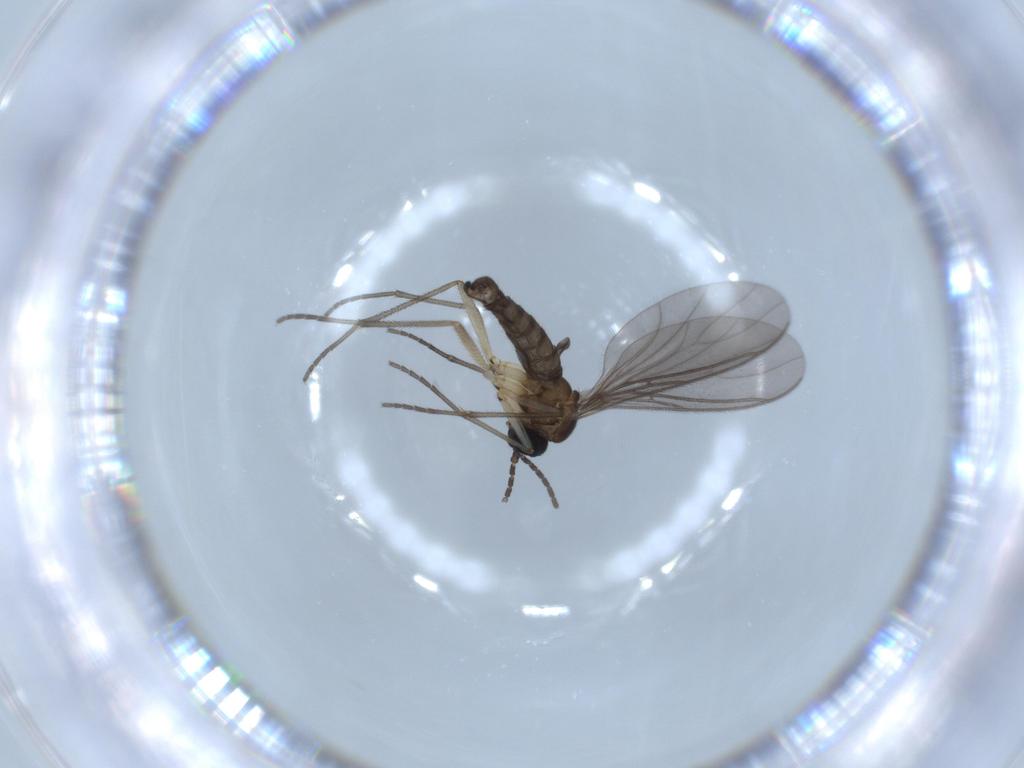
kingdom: Animalia
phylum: Arthropoda
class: Insecta
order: Diptera
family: Sciaridae
